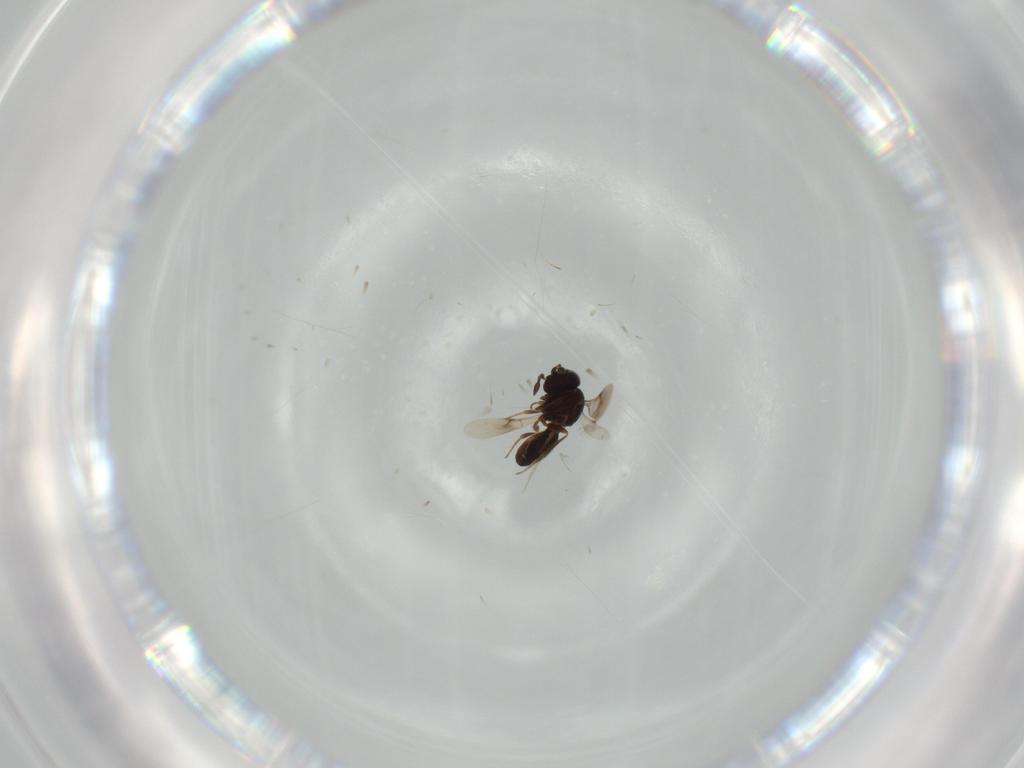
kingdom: Animalia
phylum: Arthropoda
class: Arachnida
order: Araneae
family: Pholcidae
